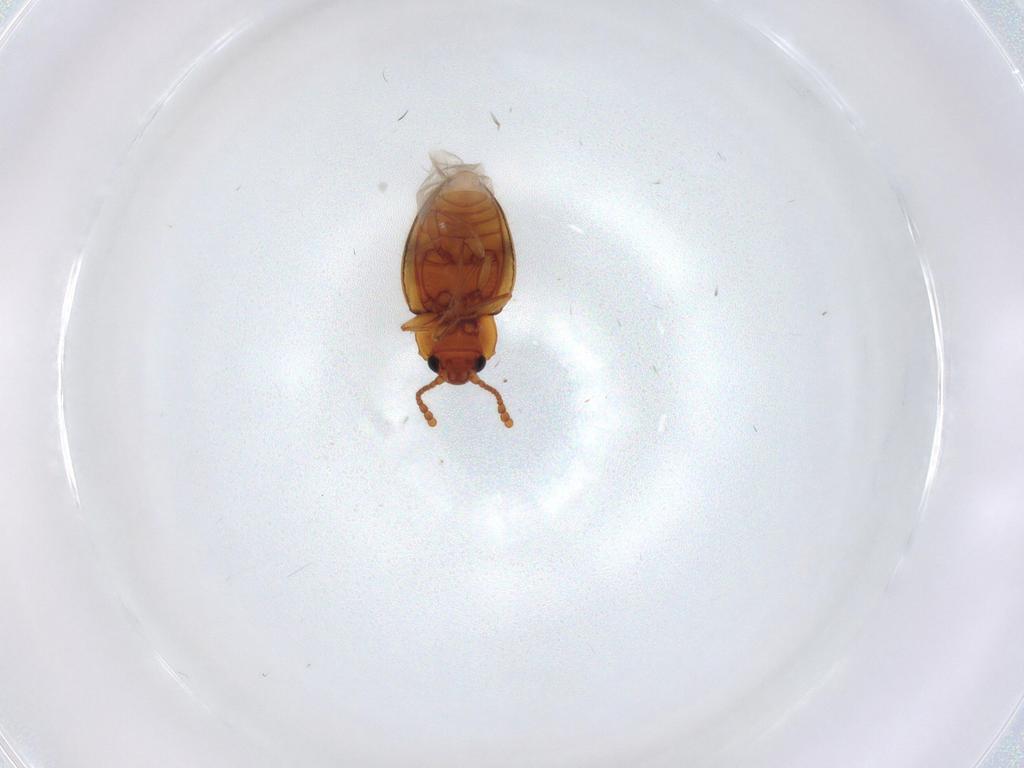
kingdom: Animalia
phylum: Arthropoda
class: Insecta
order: Coleoptera
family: Erotylidae
